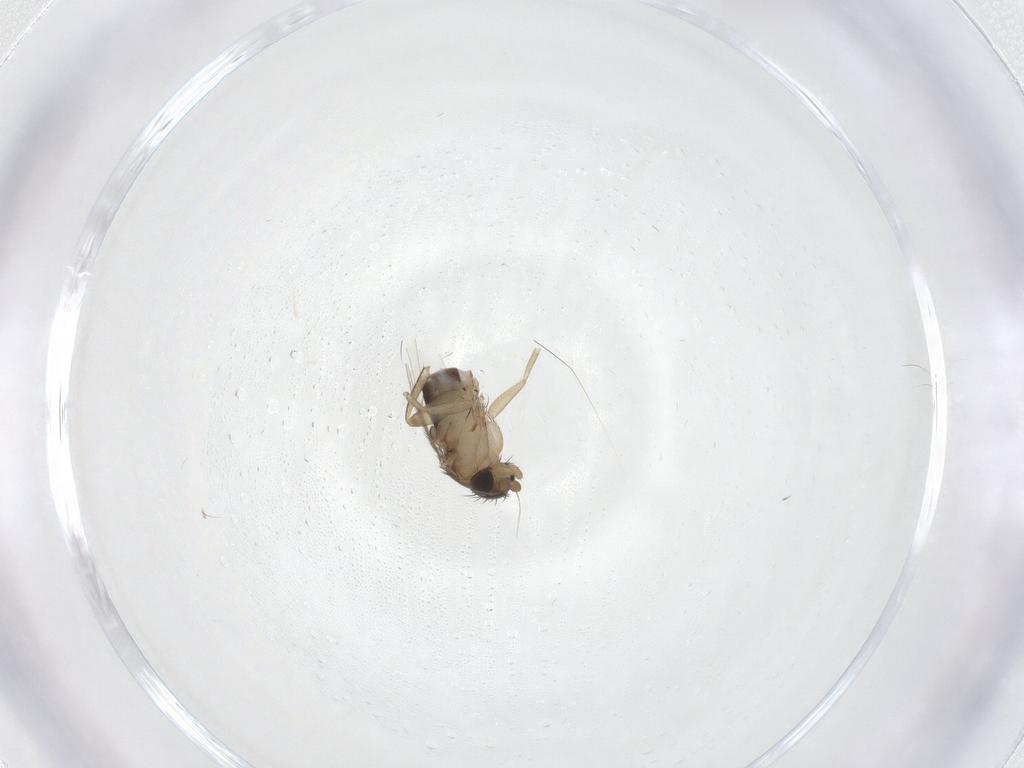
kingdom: Animalia
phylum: Arthropoda
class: Insecta
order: Diptera
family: Phoridae
